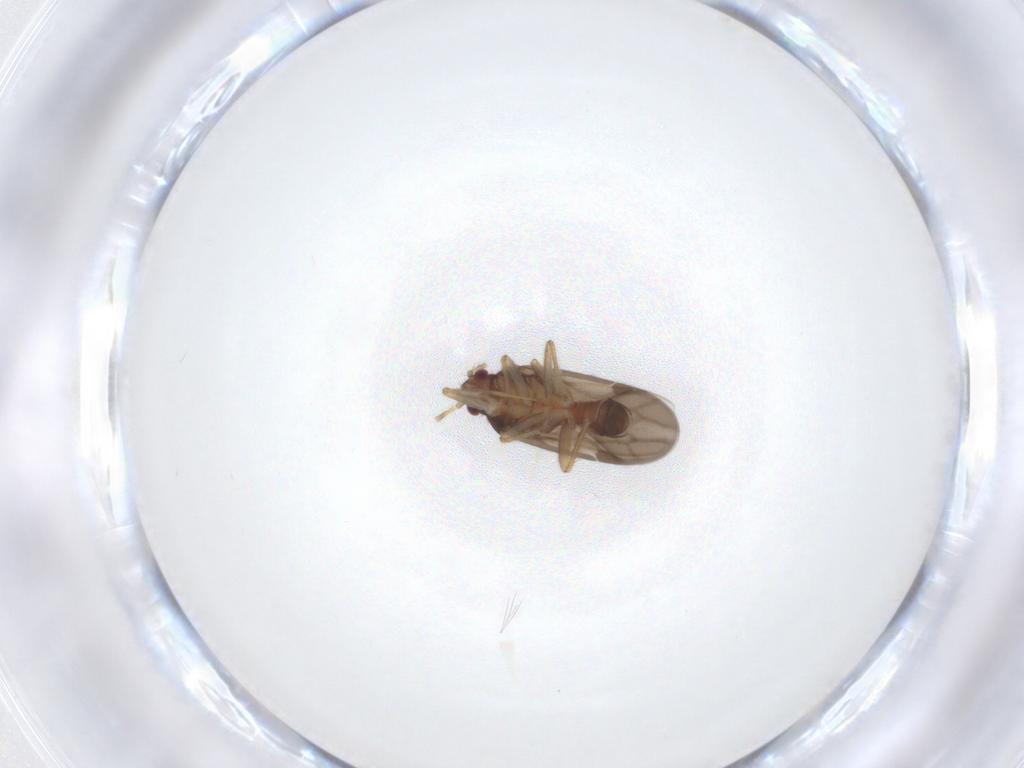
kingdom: Animalia
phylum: Arthropoda
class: Insecta
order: Hemiptera
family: Ceratocombidae
